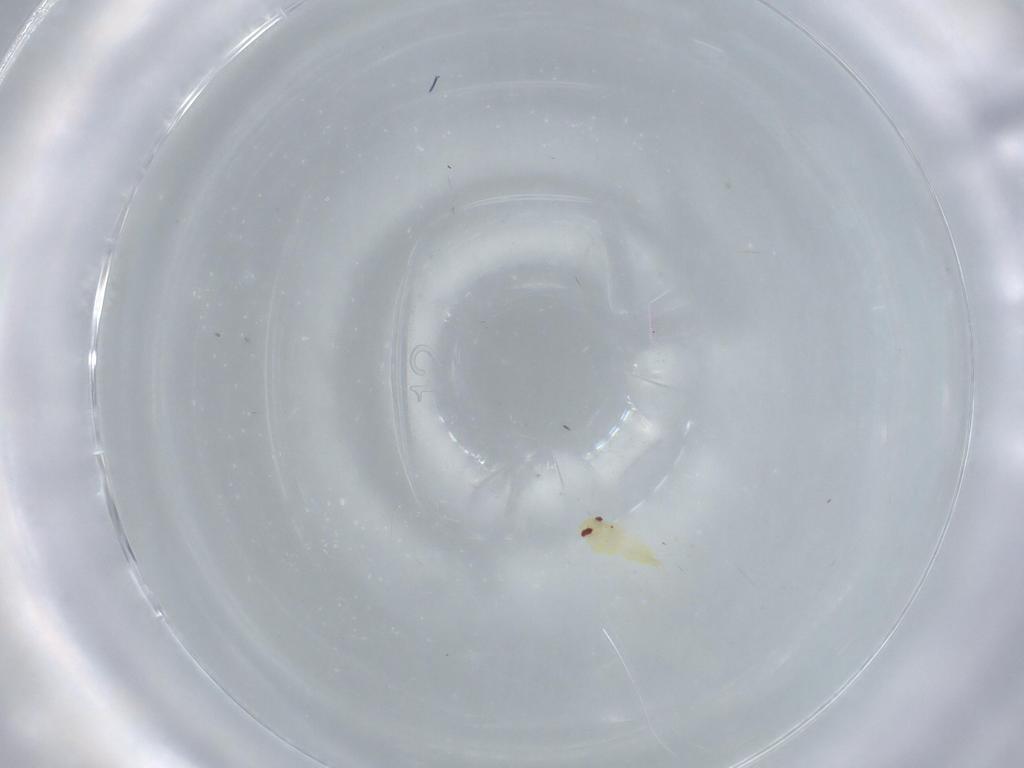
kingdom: Animalia
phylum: Arthropoda
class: Insecta
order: Hemiptera
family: Aleyrodidae
